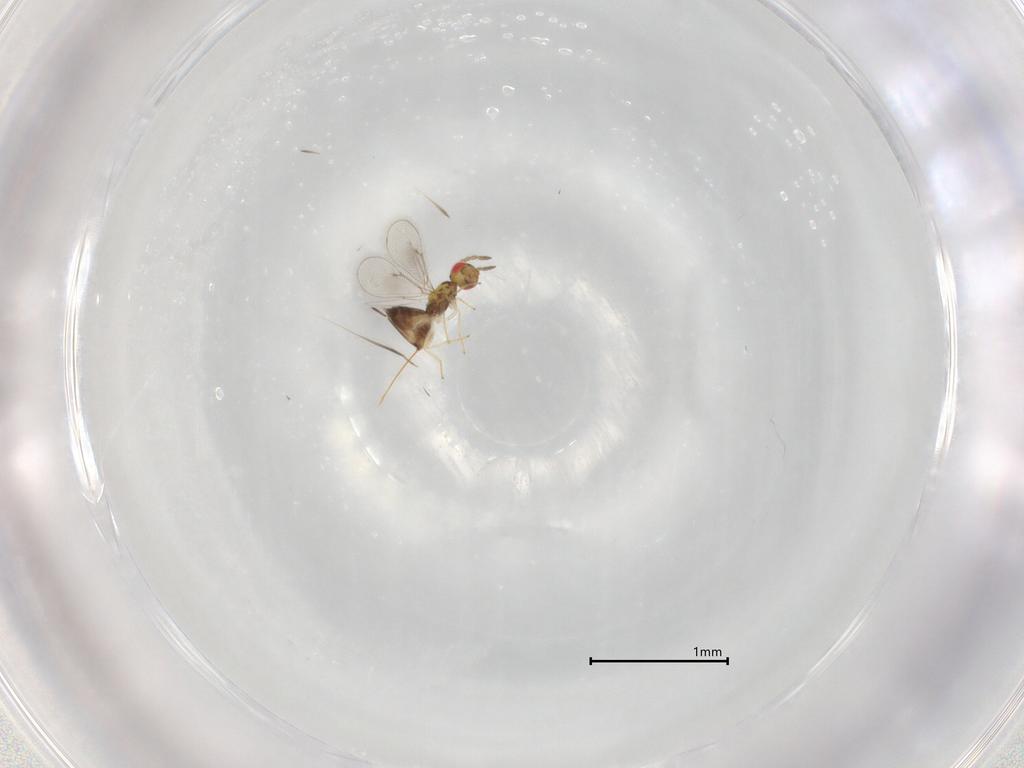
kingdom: Animalia
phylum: Arthropoda
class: Insecta
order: Hymenoptera
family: Eulophidae
